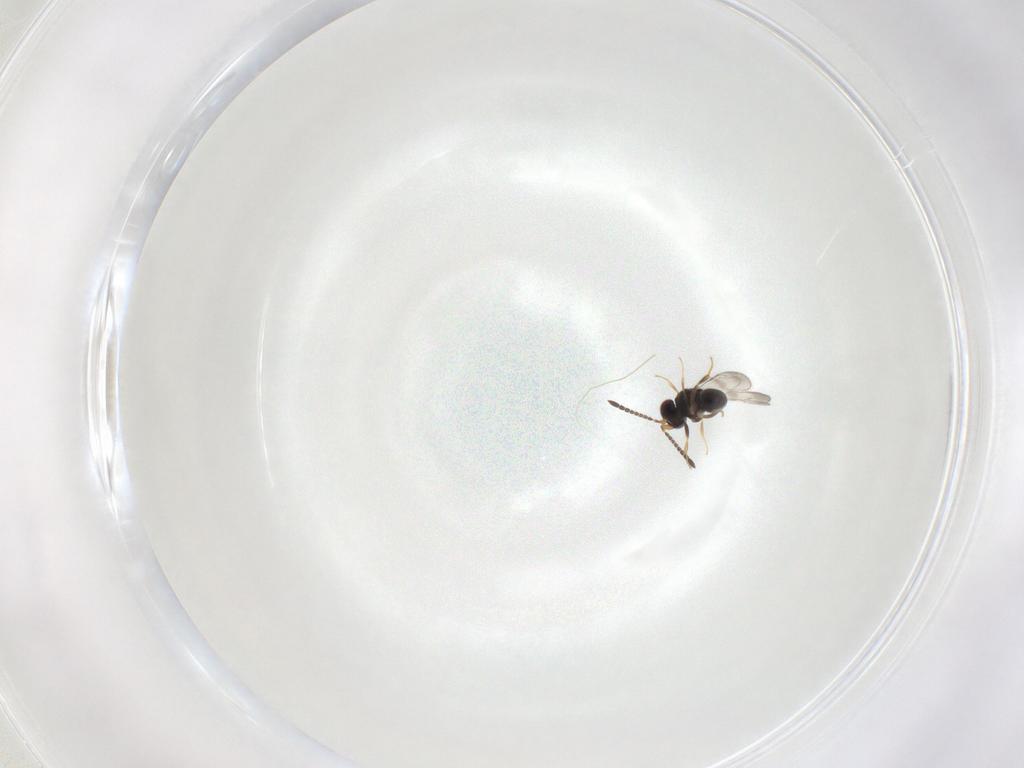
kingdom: Animalia
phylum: Arthropoda
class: Insecta
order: Hymenoptera
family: Ceraphronidae
